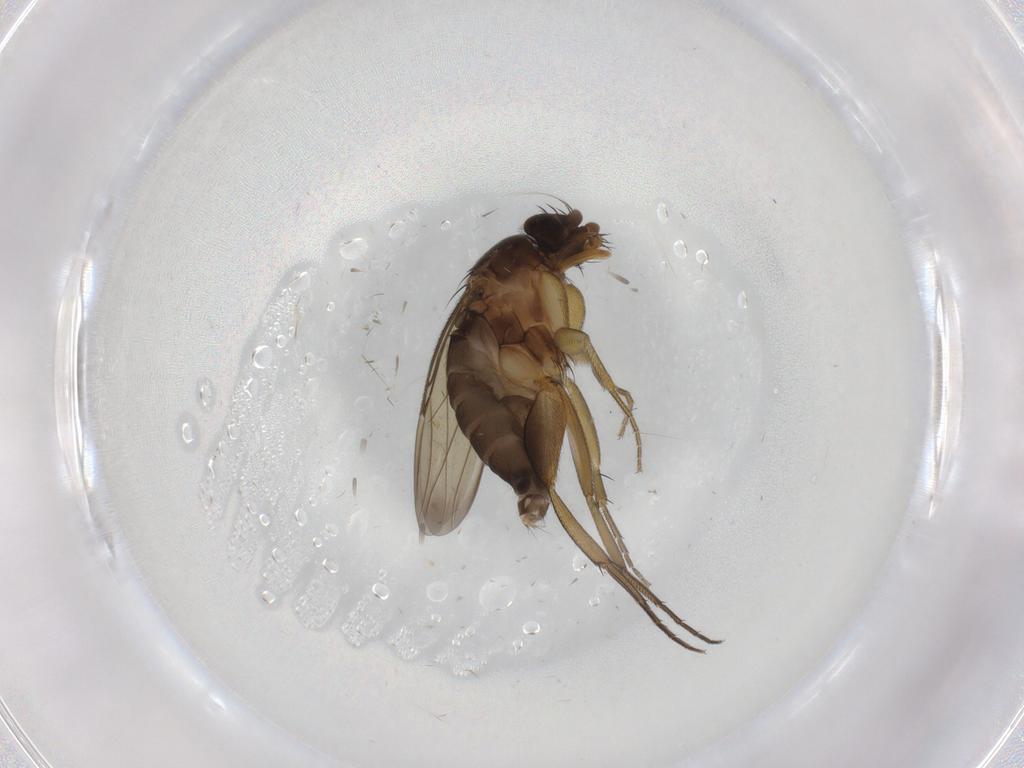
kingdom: Animalia
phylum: Arthropoda
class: Insecta
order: Diptera
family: Phoridae
